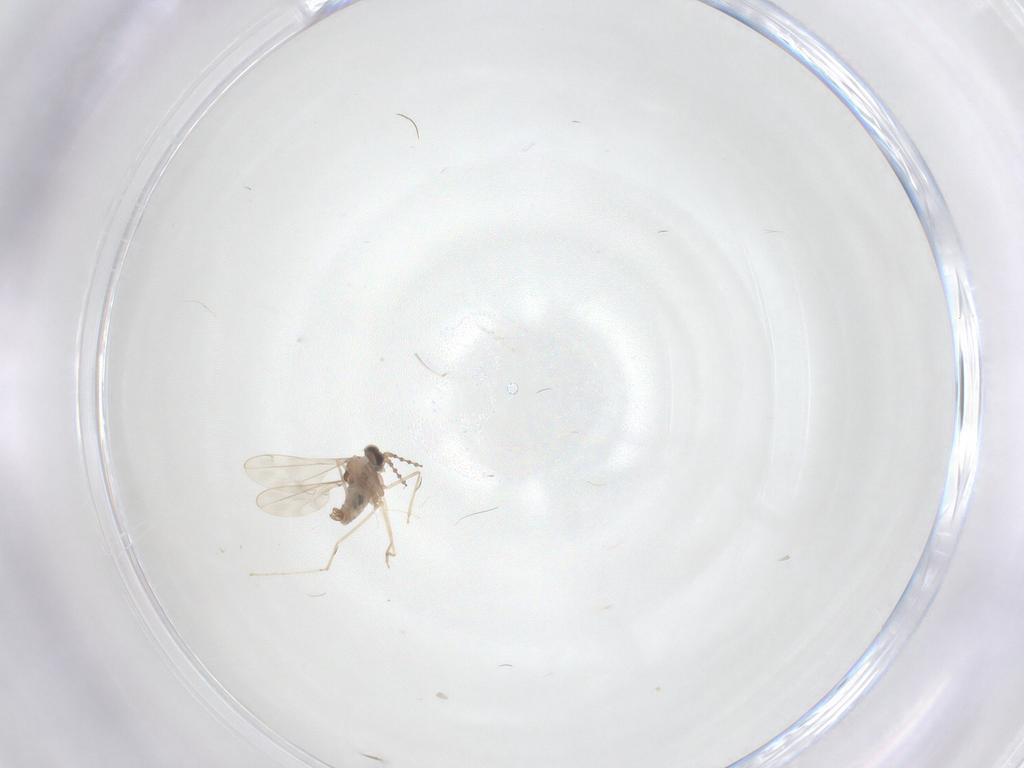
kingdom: Animalia
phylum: Arthropoda
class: Insecta
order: Diptera
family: Cecidomyiidae
